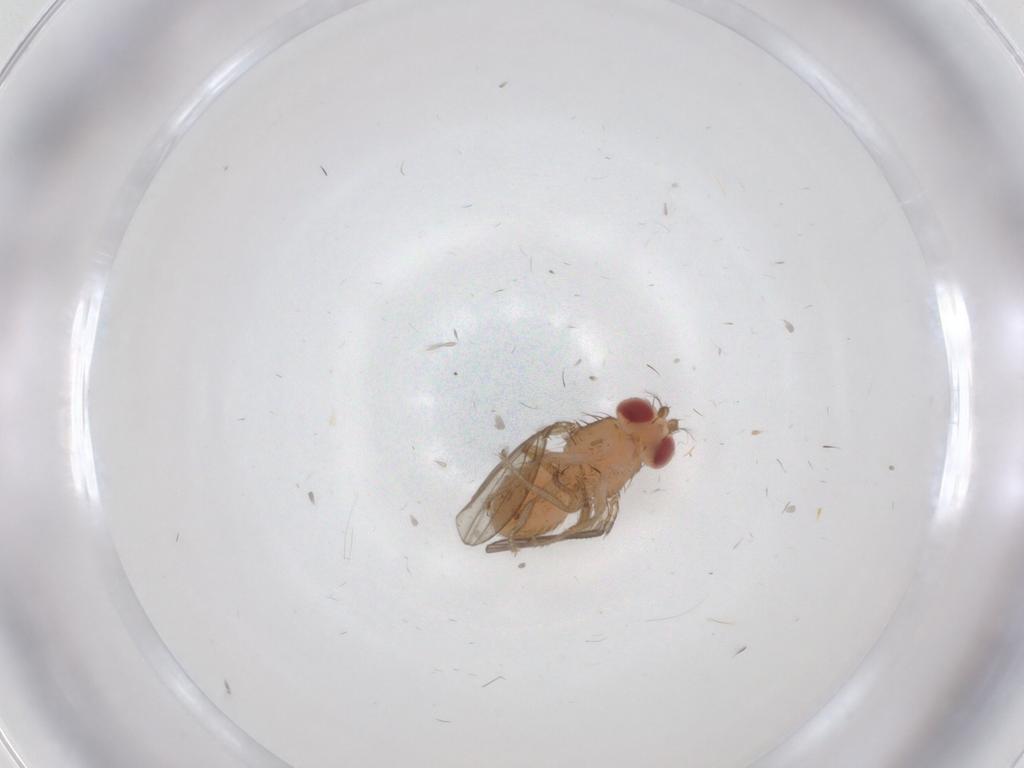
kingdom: Animalia
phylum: Arthropoda
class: Insecta
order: Diptera
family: Drosophilidae
